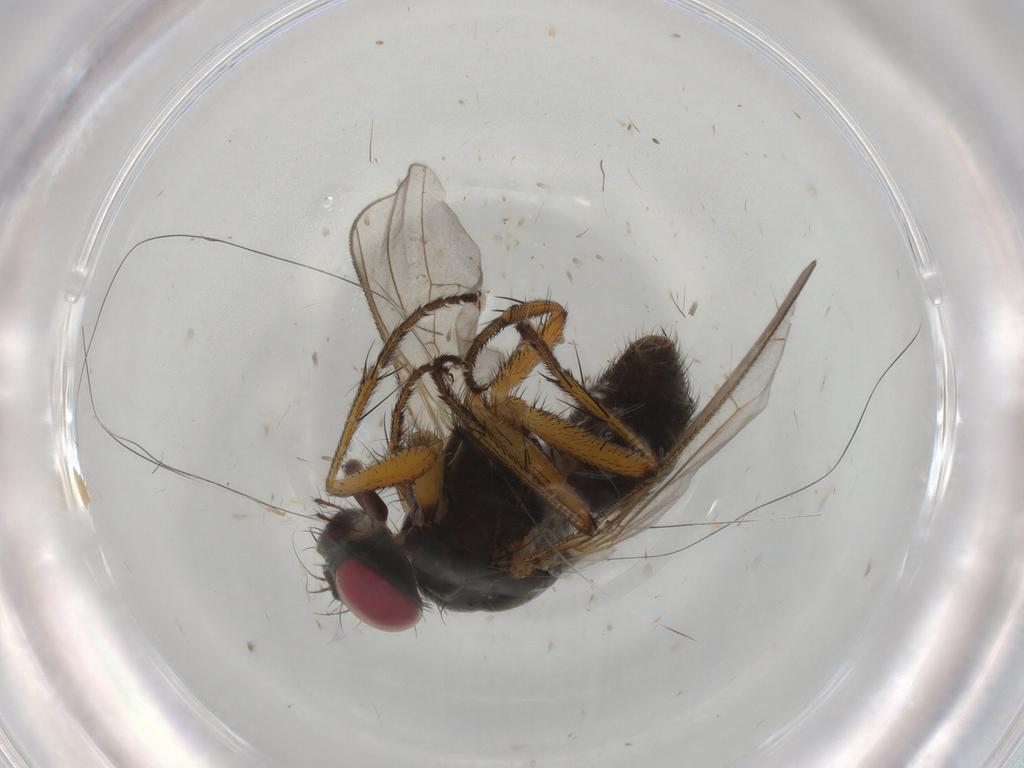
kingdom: Animalia
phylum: Arthropoda
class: Insecta
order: Diptera
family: Muscidae
